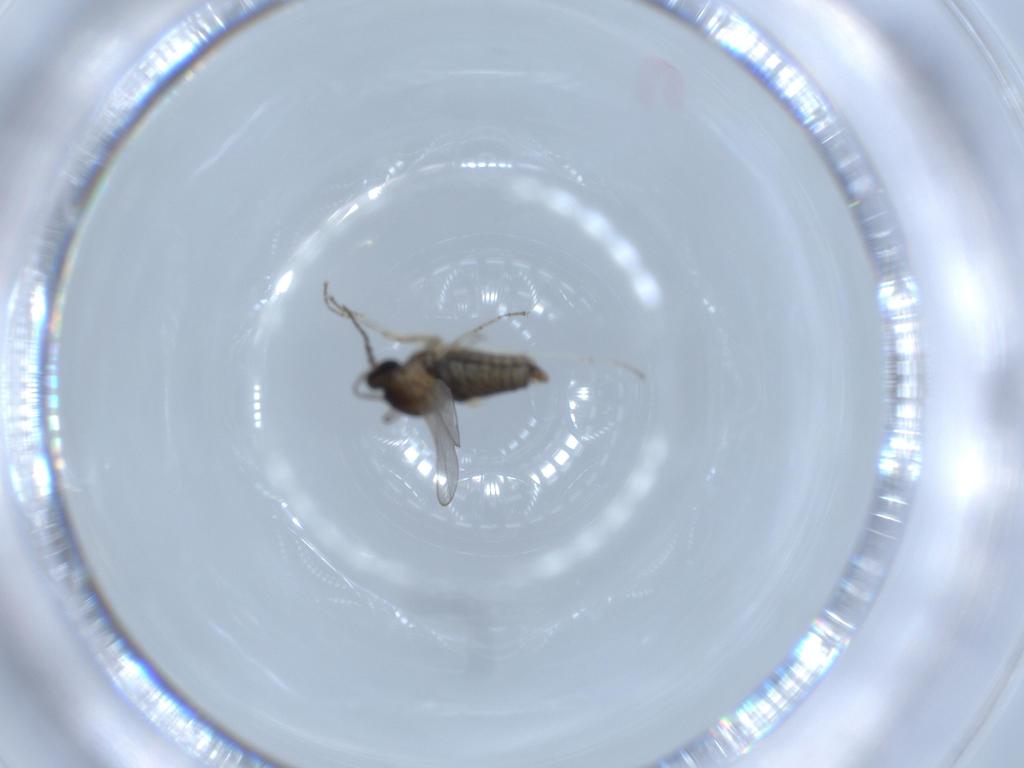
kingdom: Animalia
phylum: Arthropoda
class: Insecta
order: Diptera
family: Cecidomyiidae
